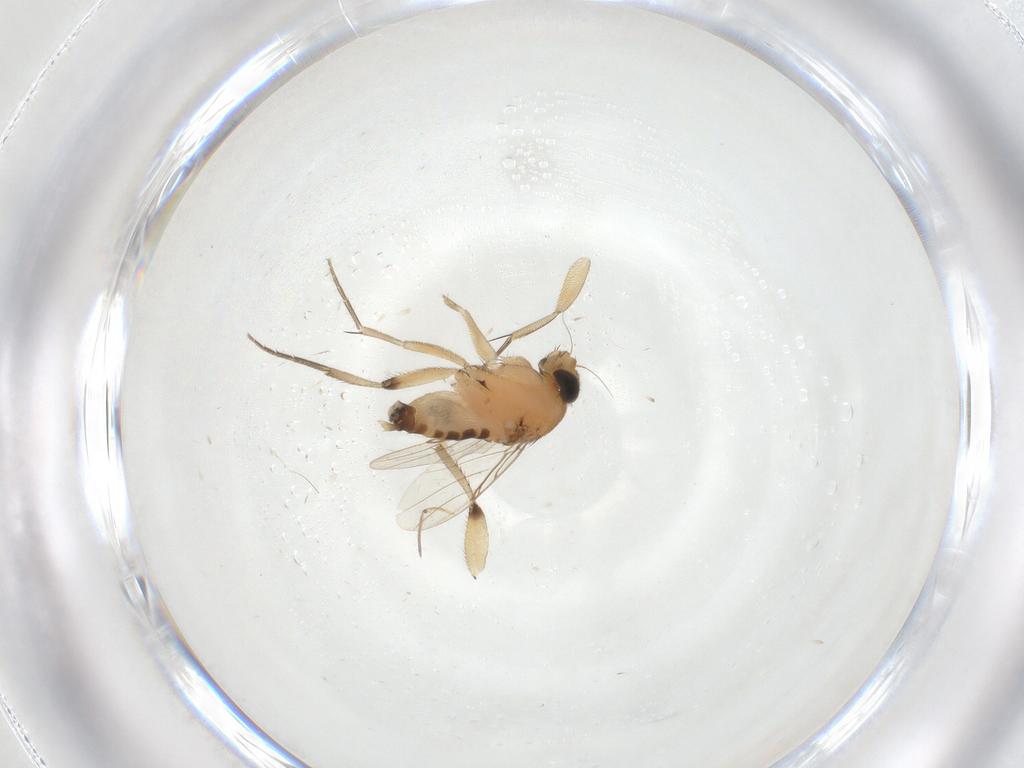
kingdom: Animalia
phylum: Arthropoda
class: Insecta
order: Diptera
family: Phoridae
